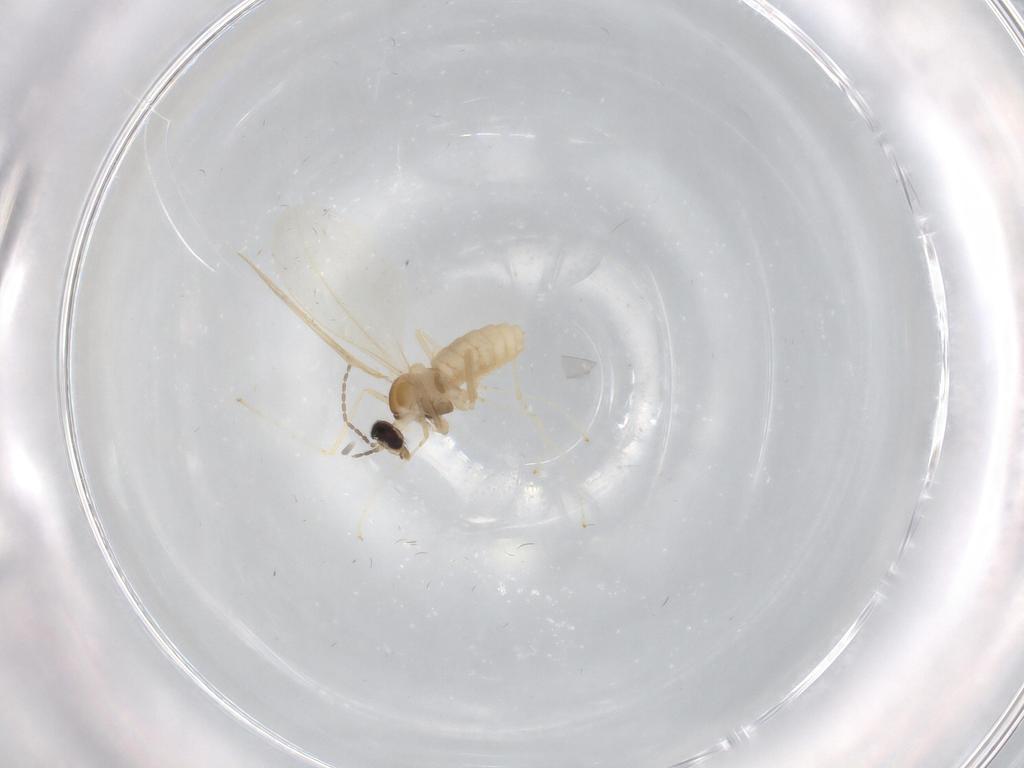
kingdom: Animalia
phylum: Arthropoda
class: Insecta
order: Diptera
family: Cecidomyiidae
